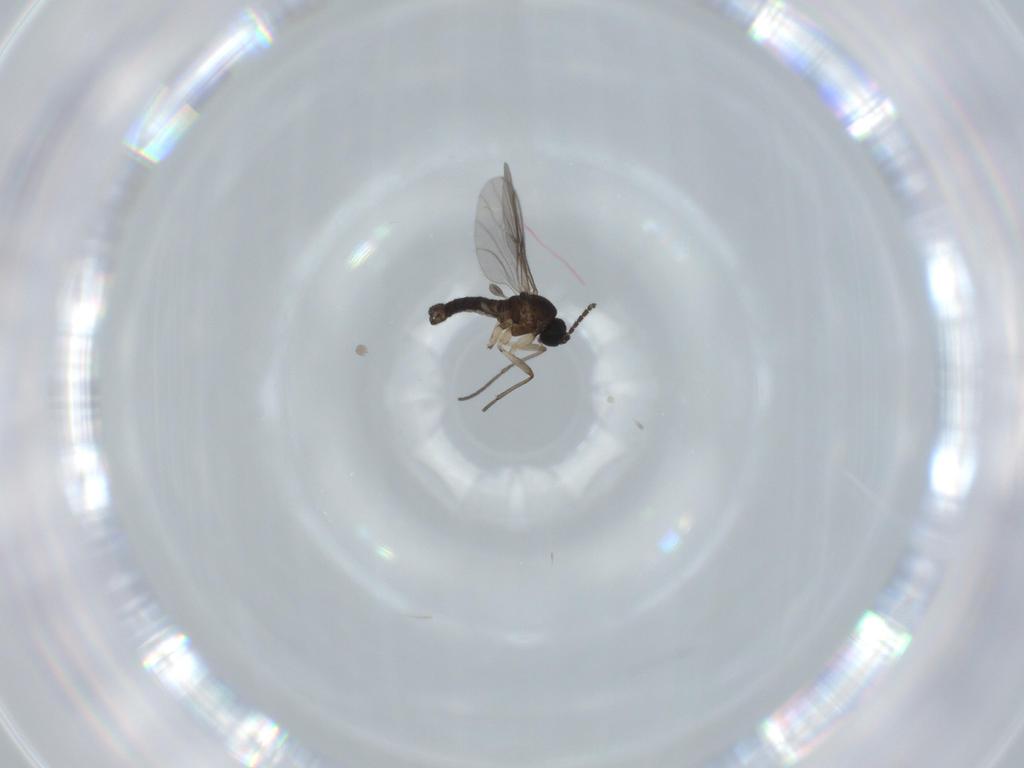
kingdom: Animalia
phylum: Arthropoda
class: Insecta
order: Diptera
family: Sciaridae
